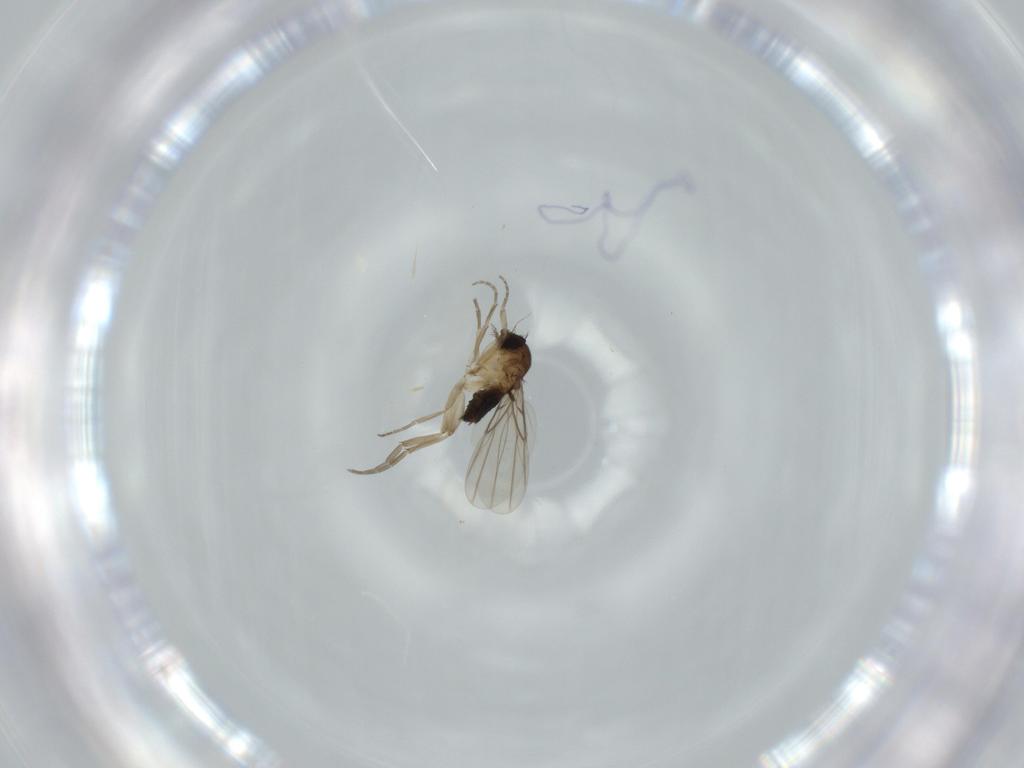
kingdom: Animalia
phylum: Arthropoda
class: Insecta
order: Diptera
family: Phoridae
